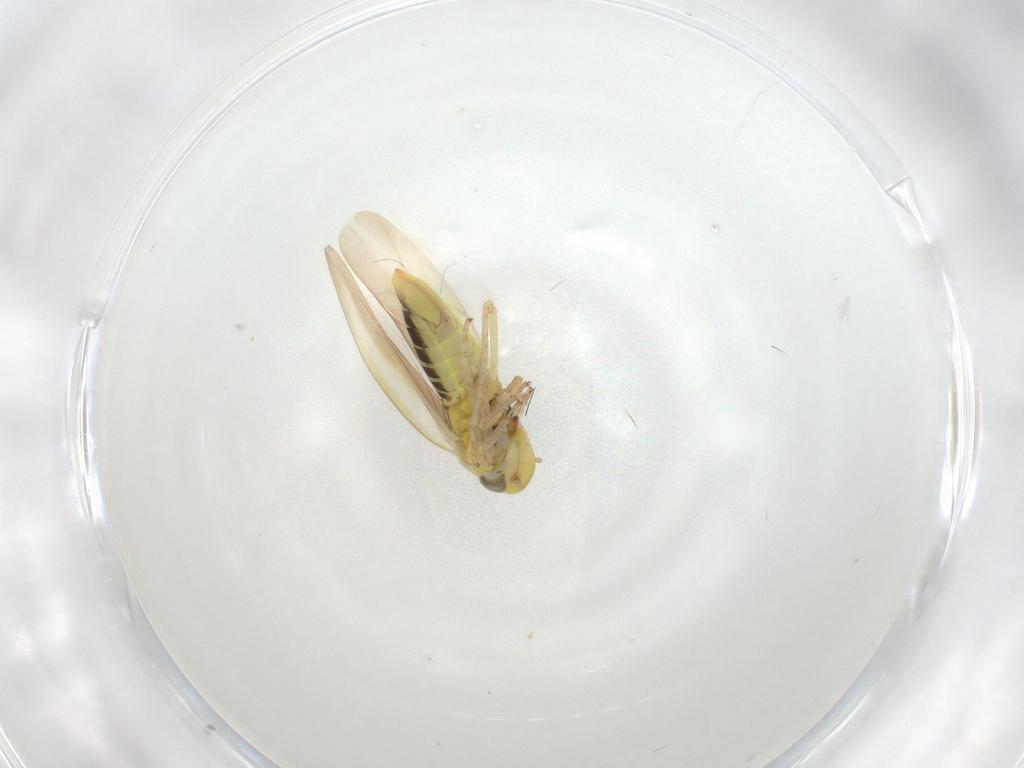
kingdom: Animalia
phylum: Arthropoda
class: Insecta
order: Hemiptera
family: Cicadellidae
